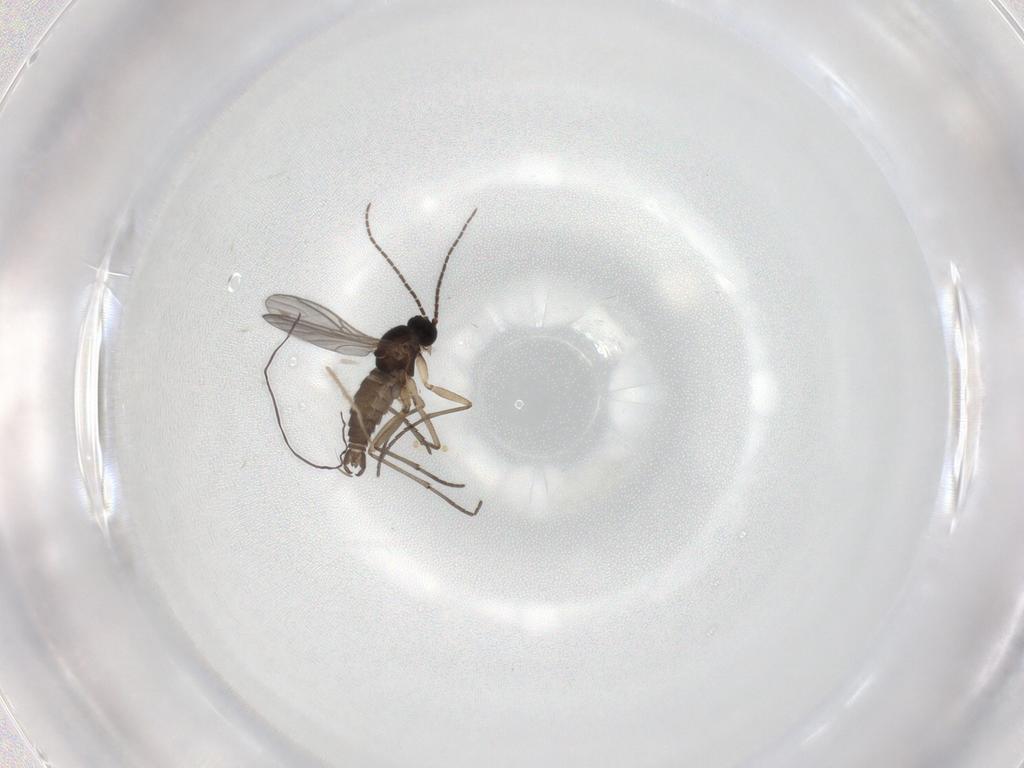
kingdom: Animalia
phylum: Arthropoda
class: Insecta
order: Diptera
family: Sciaridae
